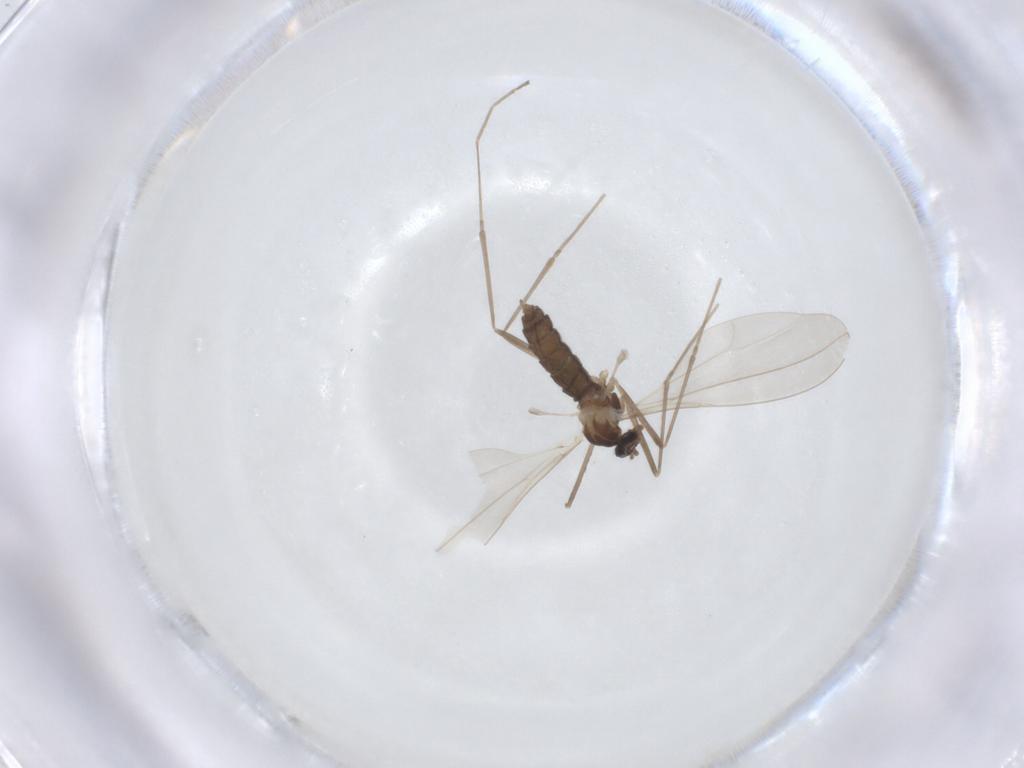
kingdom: Animalia
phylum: Arthropoda
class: Insecta
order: Diptera
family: Cecidomyiidae
